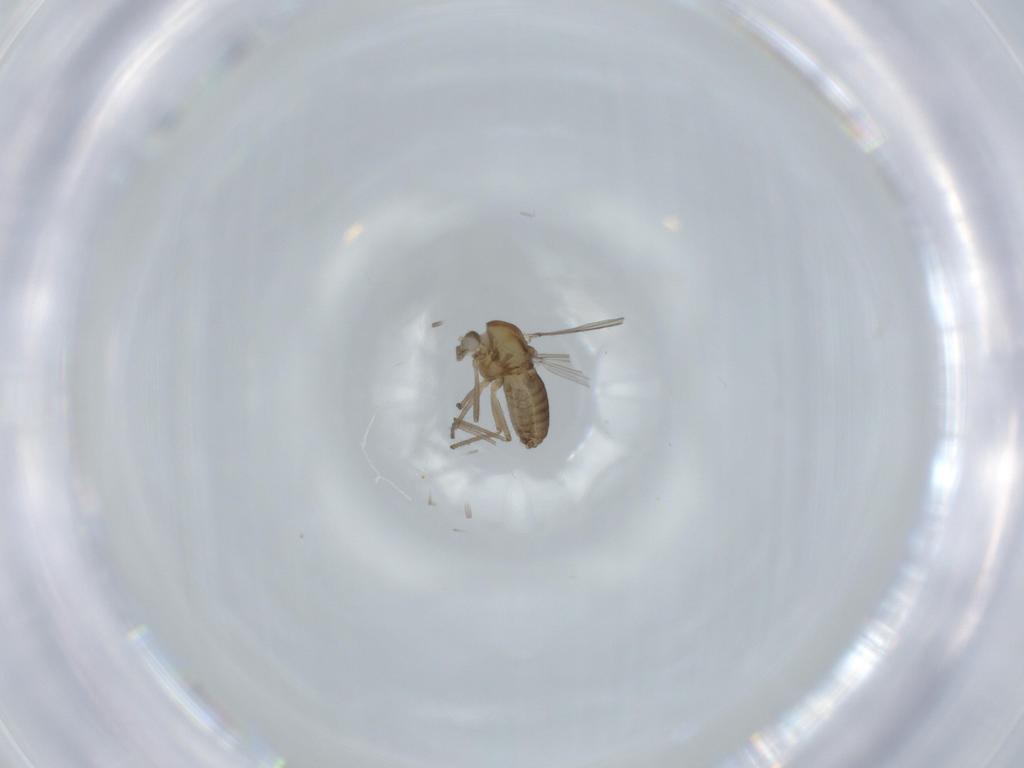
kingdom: Animalia
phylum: Arthropoda
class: Insecta
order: Diptera
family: Chironomidae
